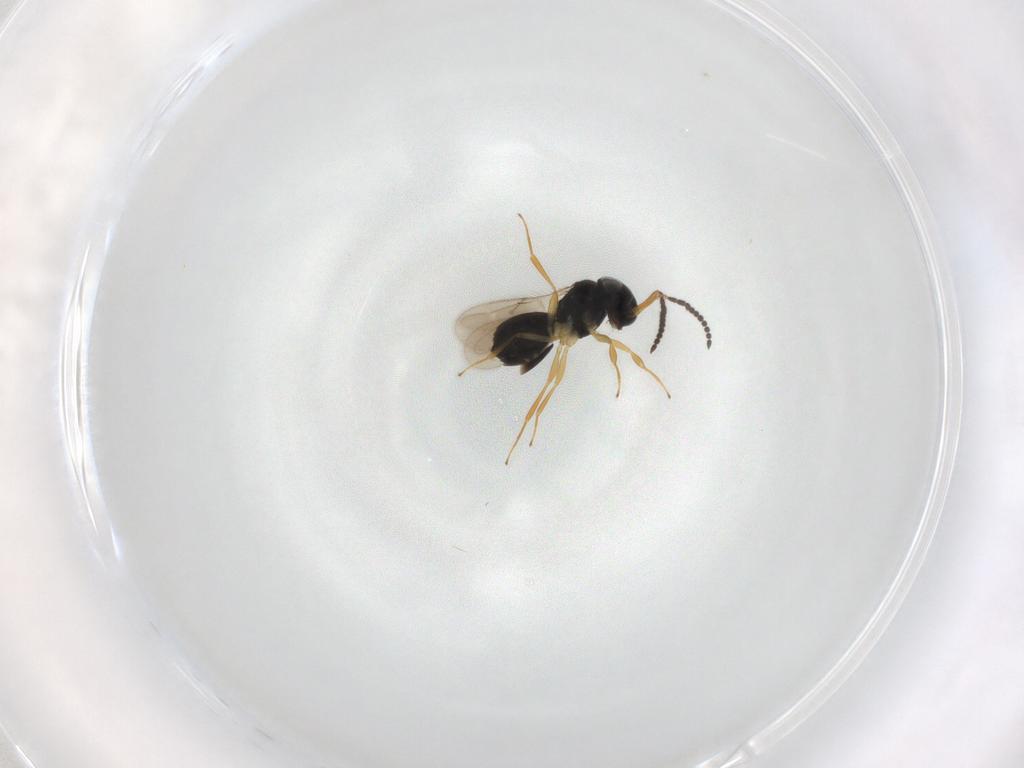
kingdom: Animalia
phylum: Arthropoda
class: Insecta
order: Hymenoptera
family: Scelionidae
